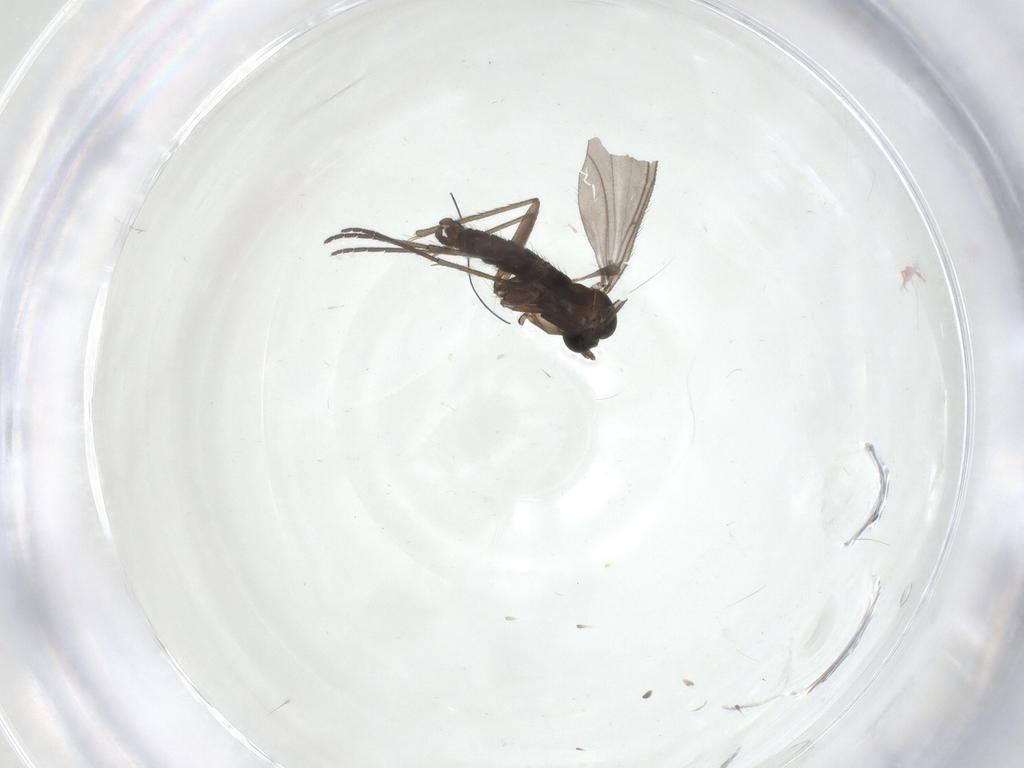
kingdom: Animalia
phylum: Arthropoda
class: Insecta
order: Diptera
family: Sciaridae
